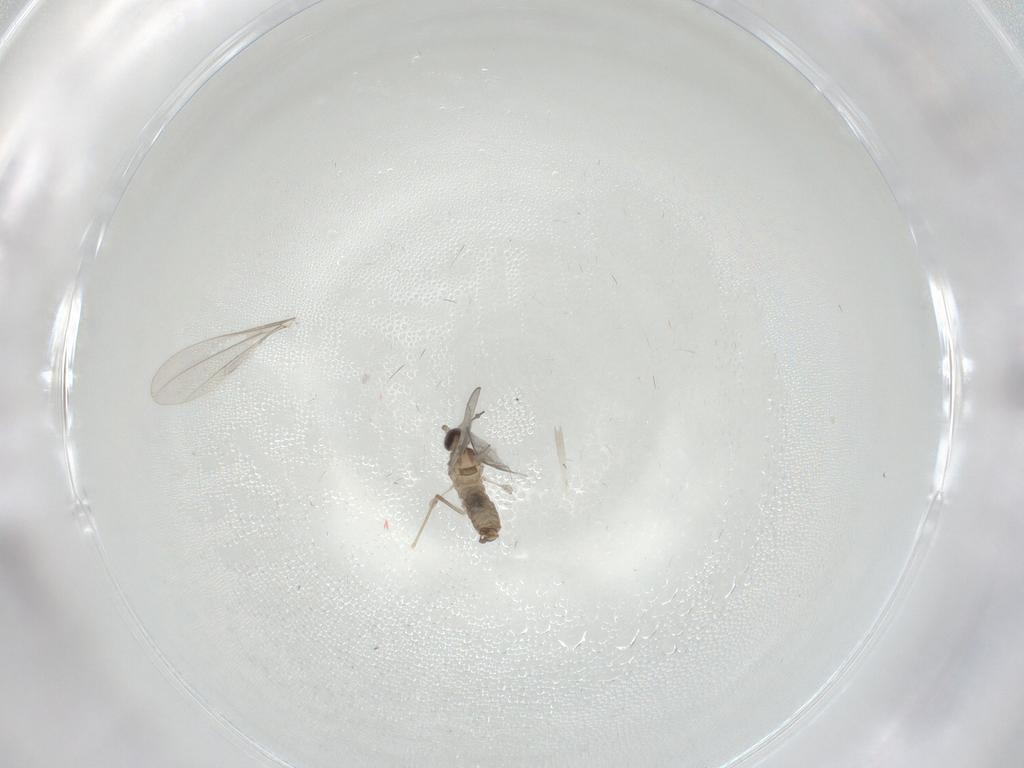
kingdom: Animalia
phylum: Arthropoda
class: Insecta
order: Diptera
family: Cecidomyiidae
